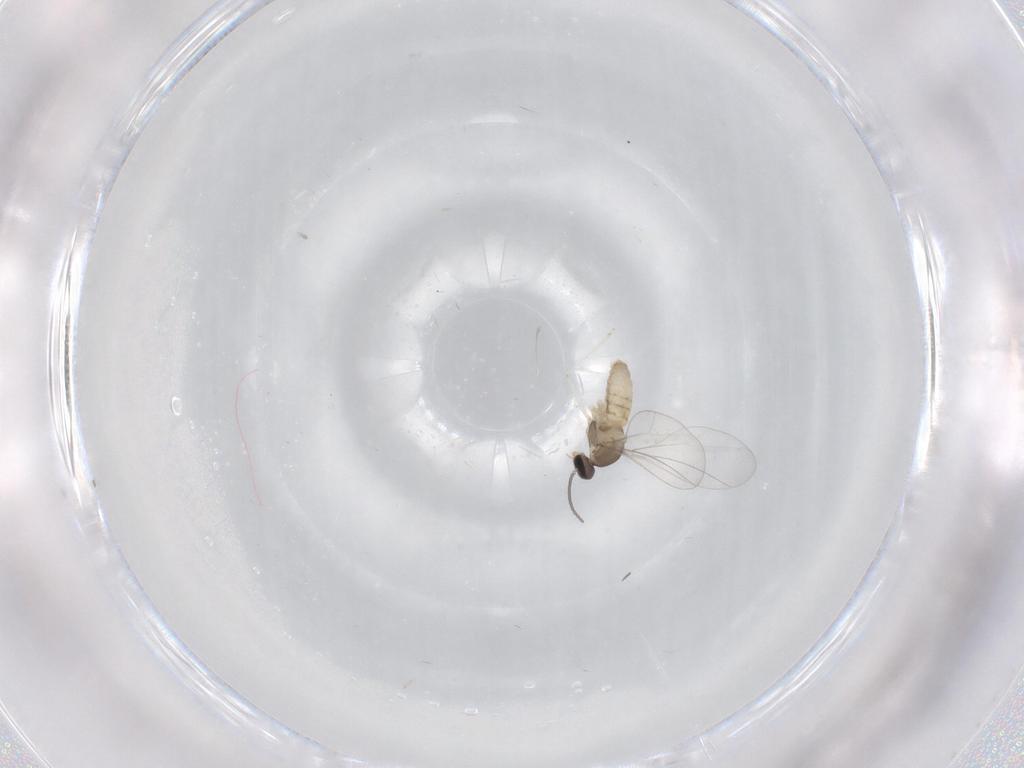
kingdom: Animalia
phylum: Arthropoda
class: Insecta
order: Diptera
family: Cecidomyiidae
